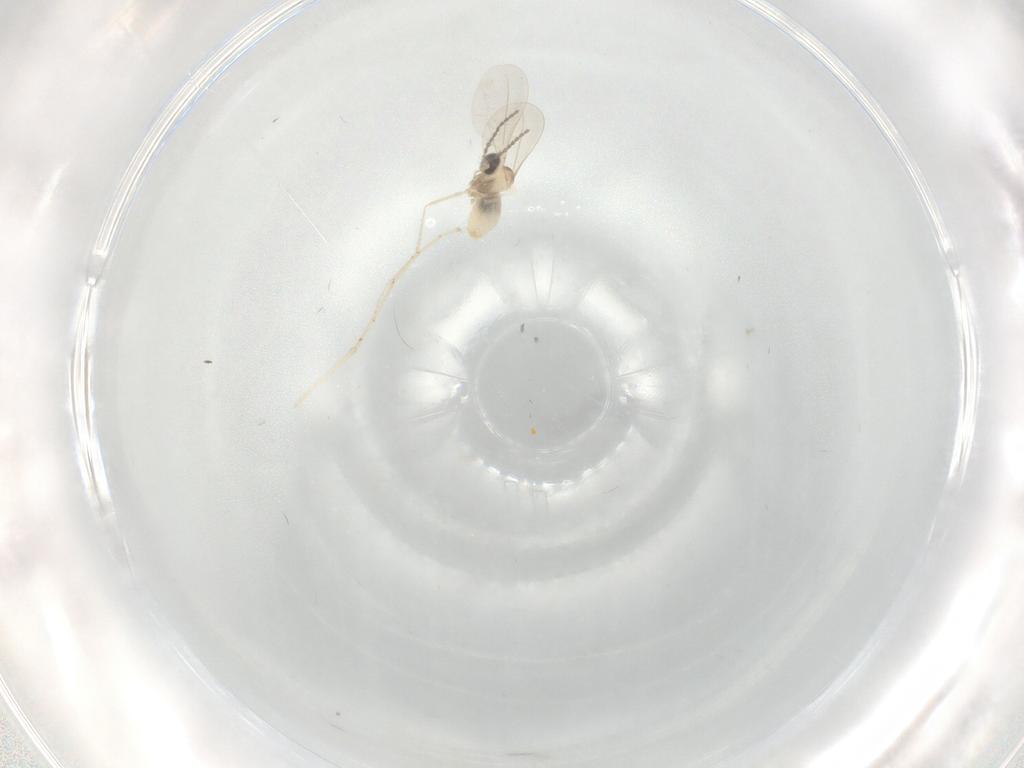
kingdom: Animalia
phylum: Arthropoda
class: Insecta
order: Diptera
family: Cecidomyiidae
